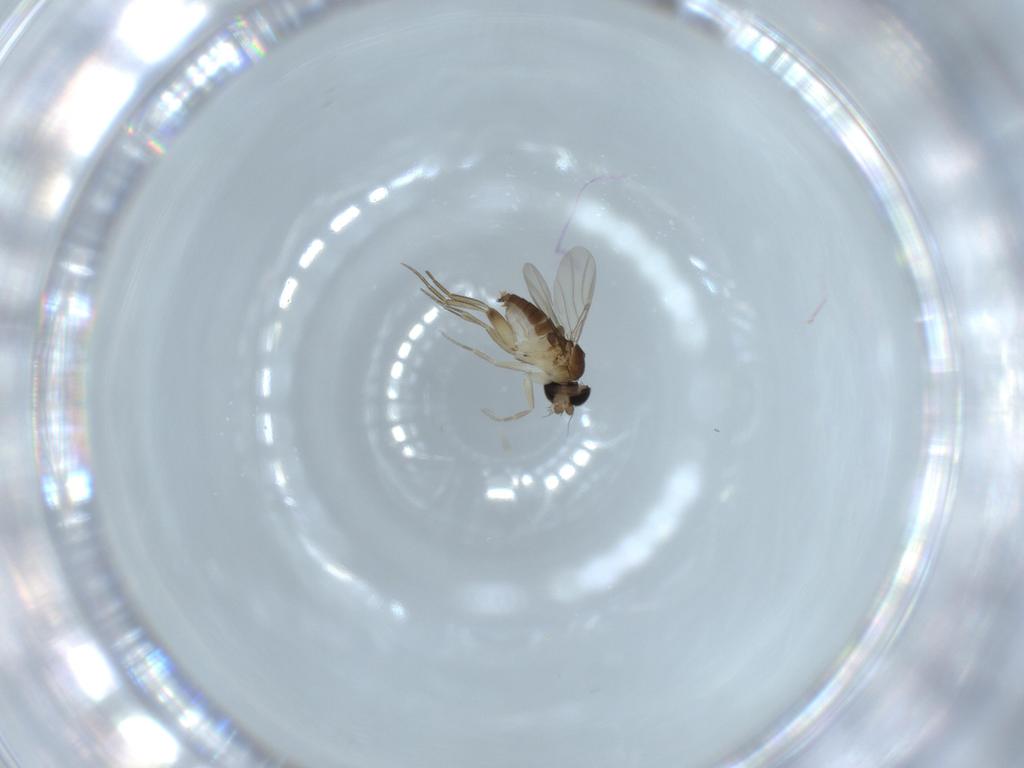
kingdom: Animalia
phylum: Arthropoda
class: Insecta
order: Diptera
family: Phoridae
